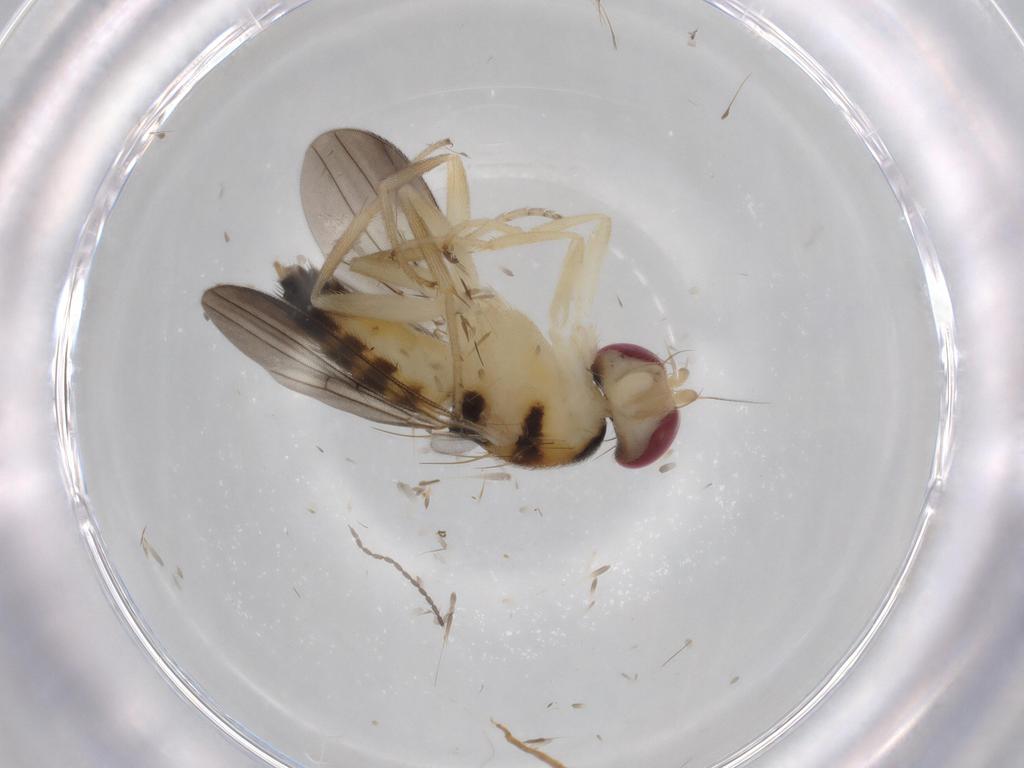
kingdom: Animalia
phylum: Arthropoda
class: Insecta
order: Diptera
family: Clusiidae
